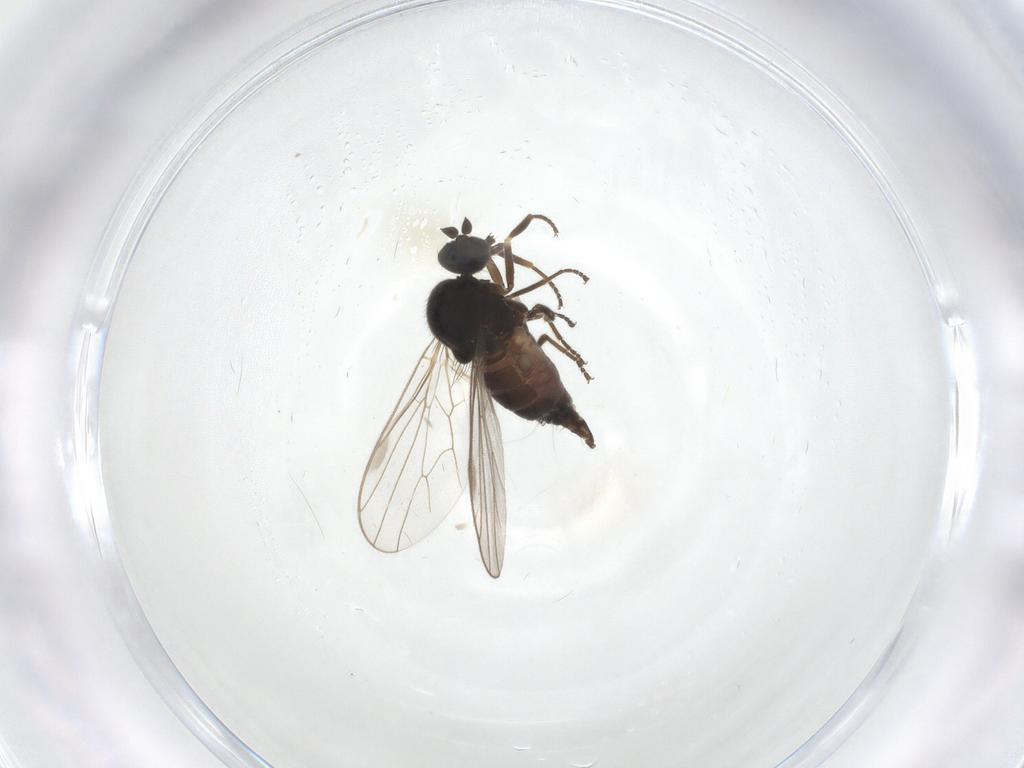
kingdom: Animalia
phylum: Arthropoda
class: Insecta
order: Diptera
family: Hybotidae
